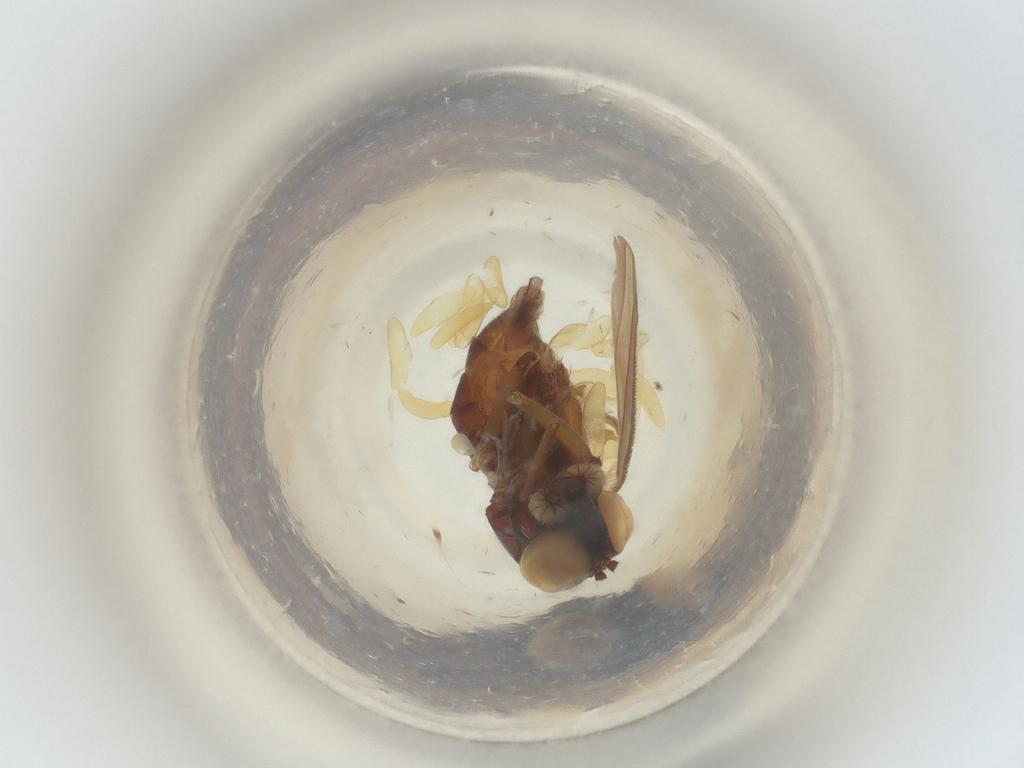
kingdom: Animalia
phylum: Arthropoda
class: Insecta
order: Diptera
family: Dolichopodidae
